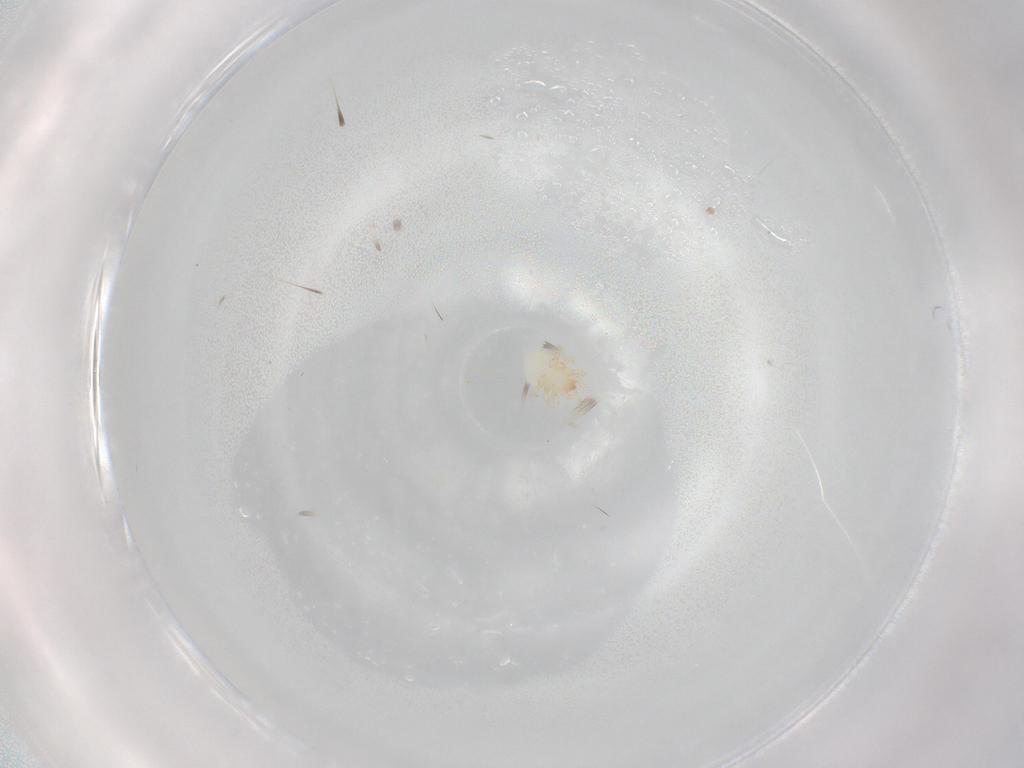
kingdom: Animalia
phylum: Arthropoda
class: Arachnida
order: Mesostigmata
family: Melicharidae
